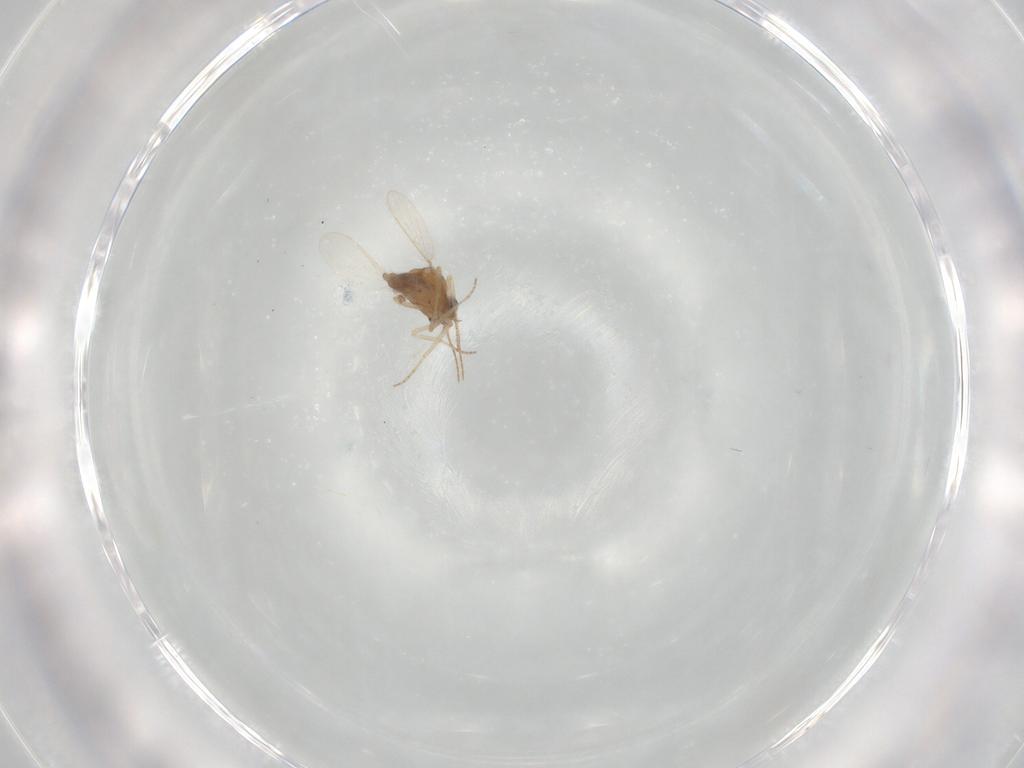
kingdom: Animalia
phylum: Arthropoda
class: Insecta
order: Diptera
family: Ceratopogonidae
